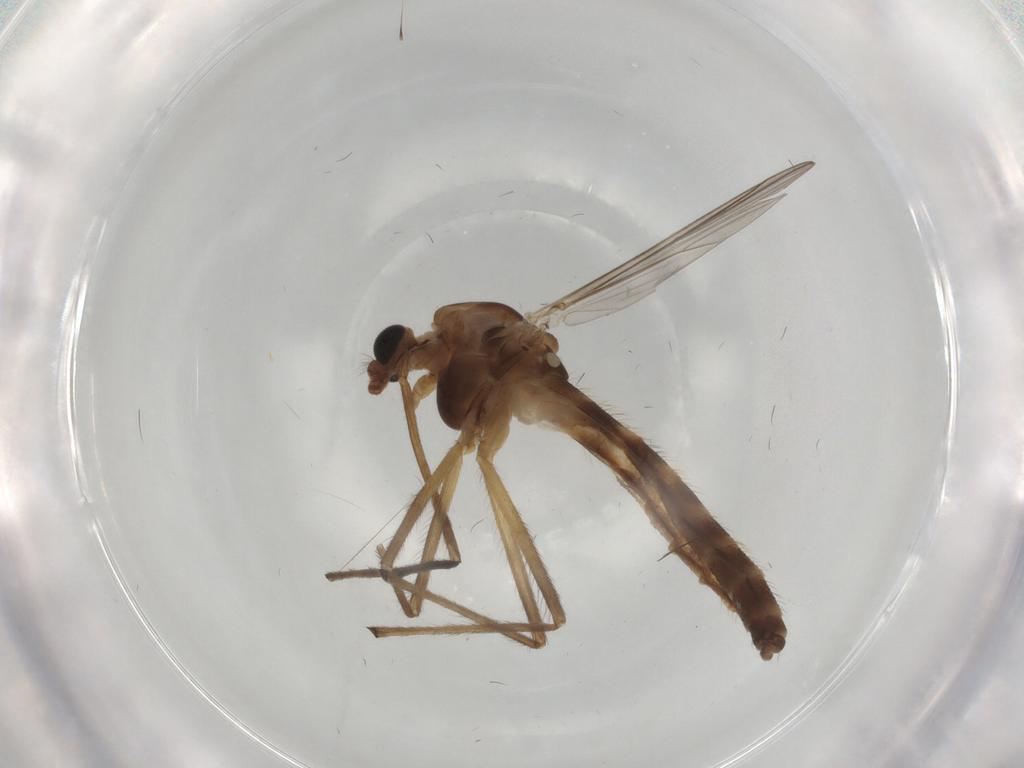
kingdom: Animalia
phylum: Arthropoda
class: Insecta
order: Diptera
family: Chironomidae
